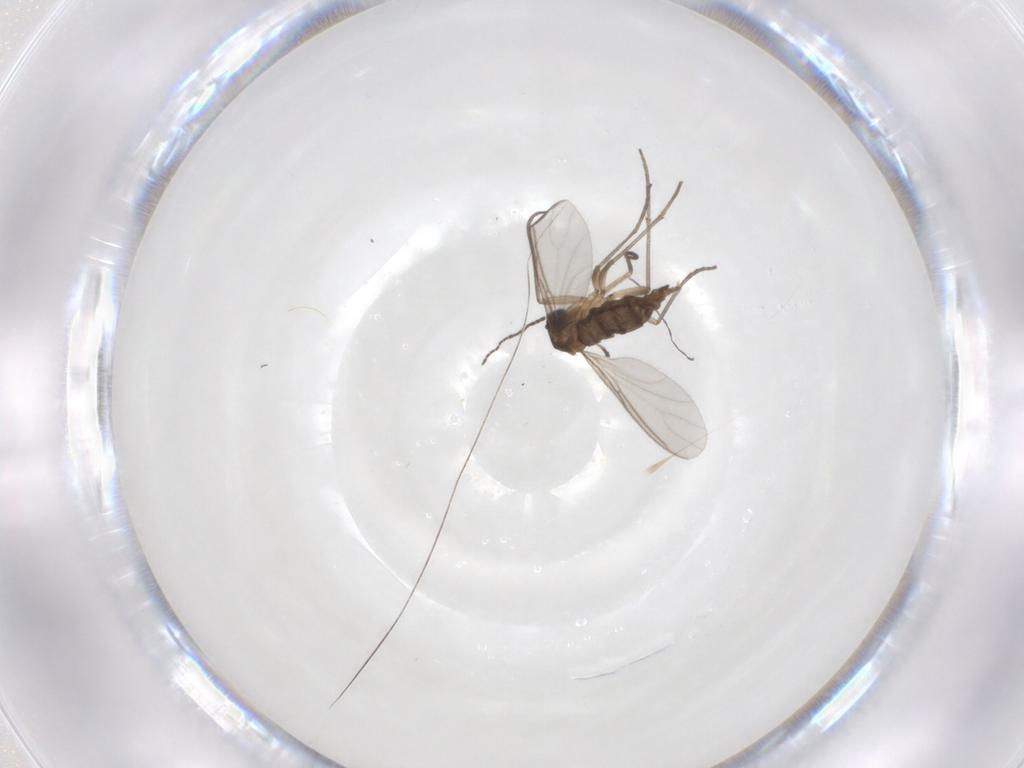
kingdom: Animalia
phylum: Arthropoda
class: Insecta
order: Diptera
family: Sciaridae
